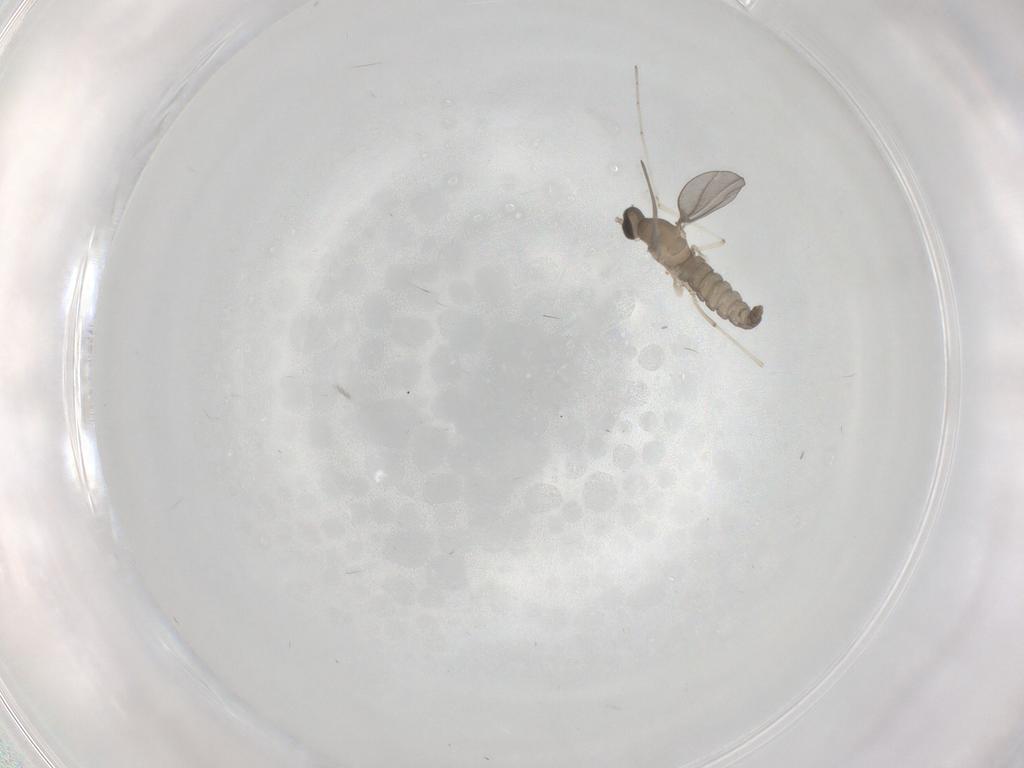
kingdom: Animalia
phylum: Arthropoda
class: Insecta
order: Diptera
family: Cecidomyiidae
